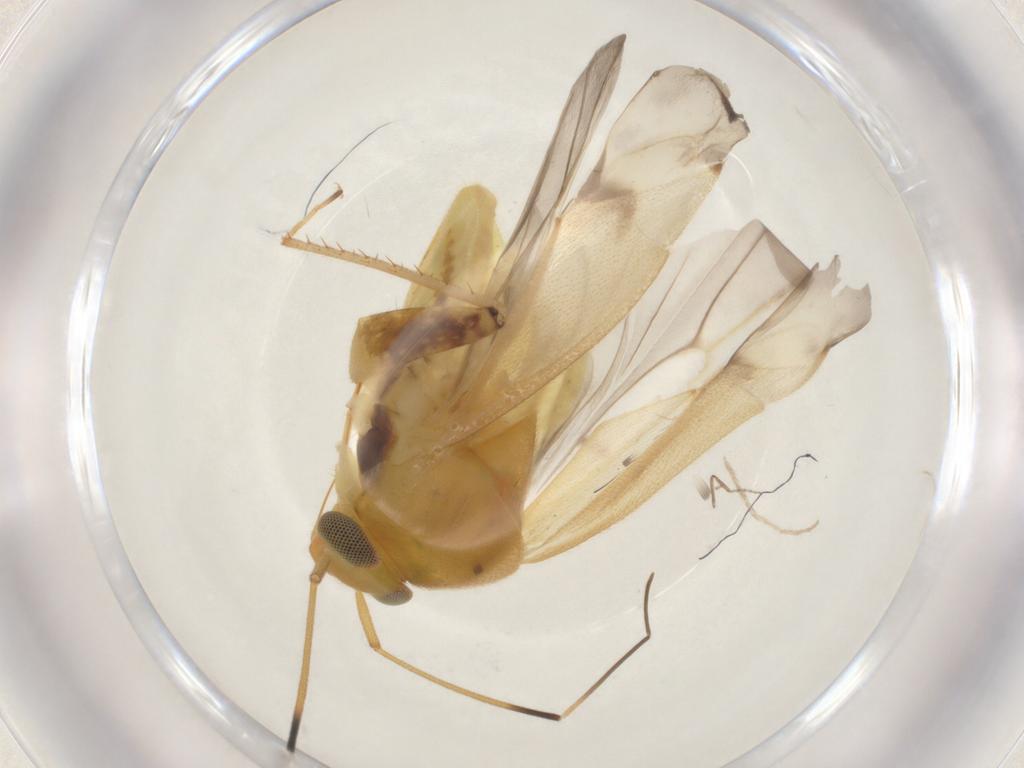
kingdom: Animalia
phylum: Arthropoda
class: Insecta
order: Hemiptera
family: Miridae
